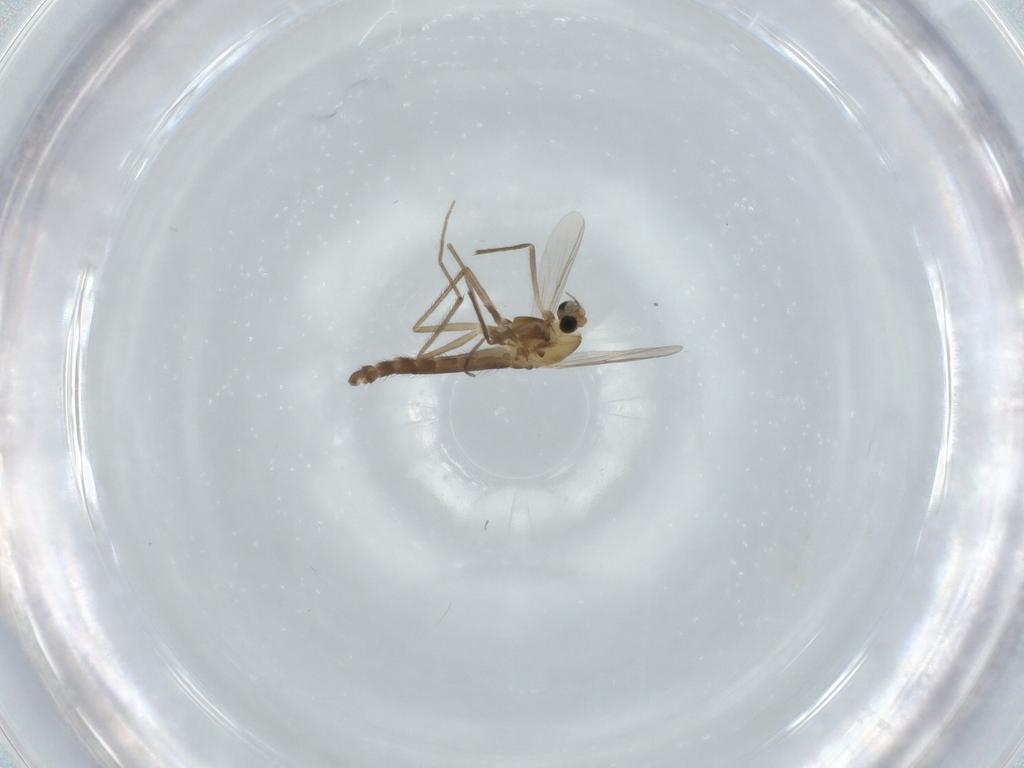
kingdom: Animalia
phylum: Arthropoda
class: Insecta
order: Diptera
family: Chironomidae
